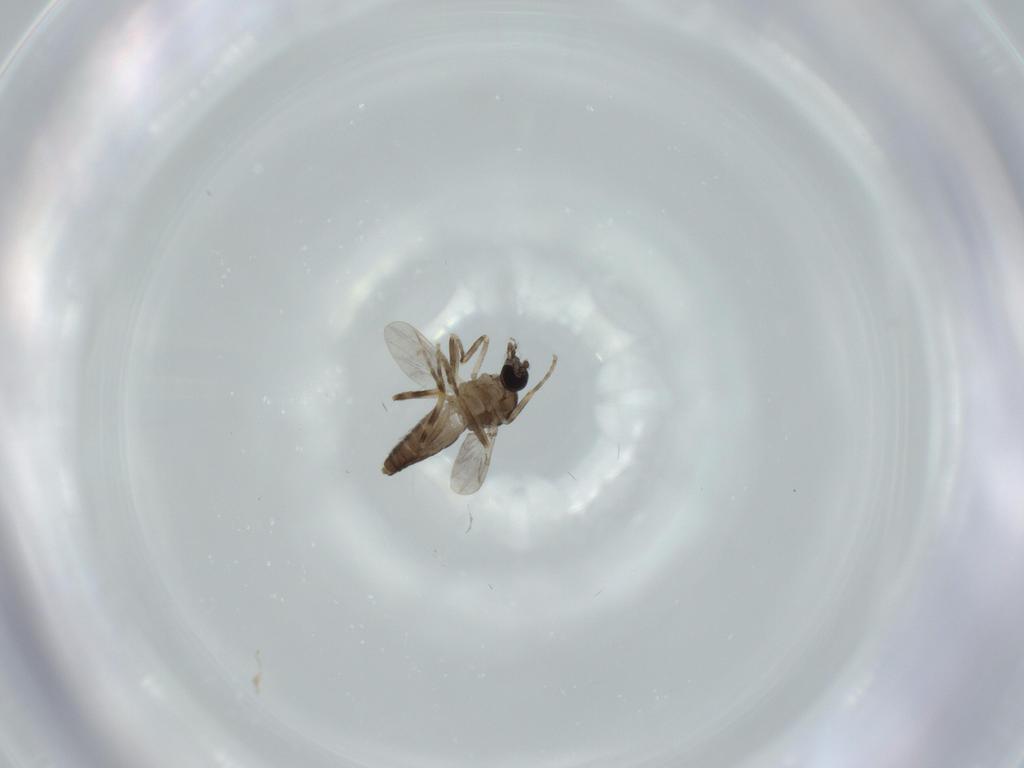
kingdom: Animalia
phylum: Arthropoda
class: Insecta
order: Diptera
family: Ceratopogonidae
